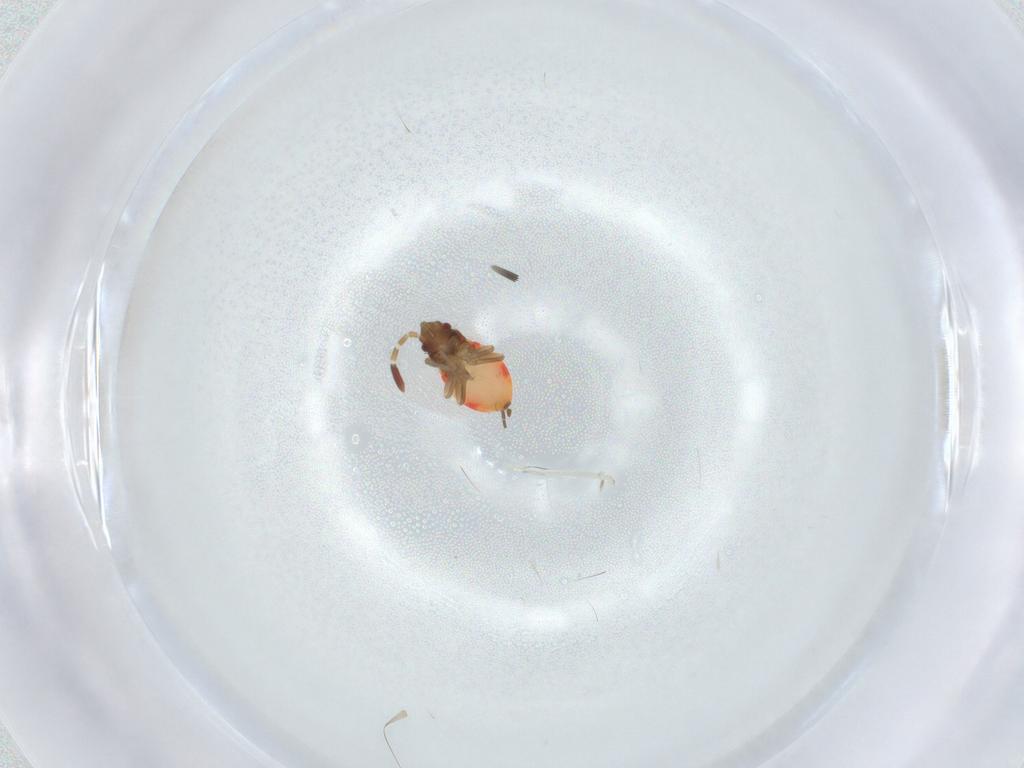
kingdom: Animalia
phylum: Arthropoda
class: Insecta
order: Hemiptera
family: Rhyparochromidae
